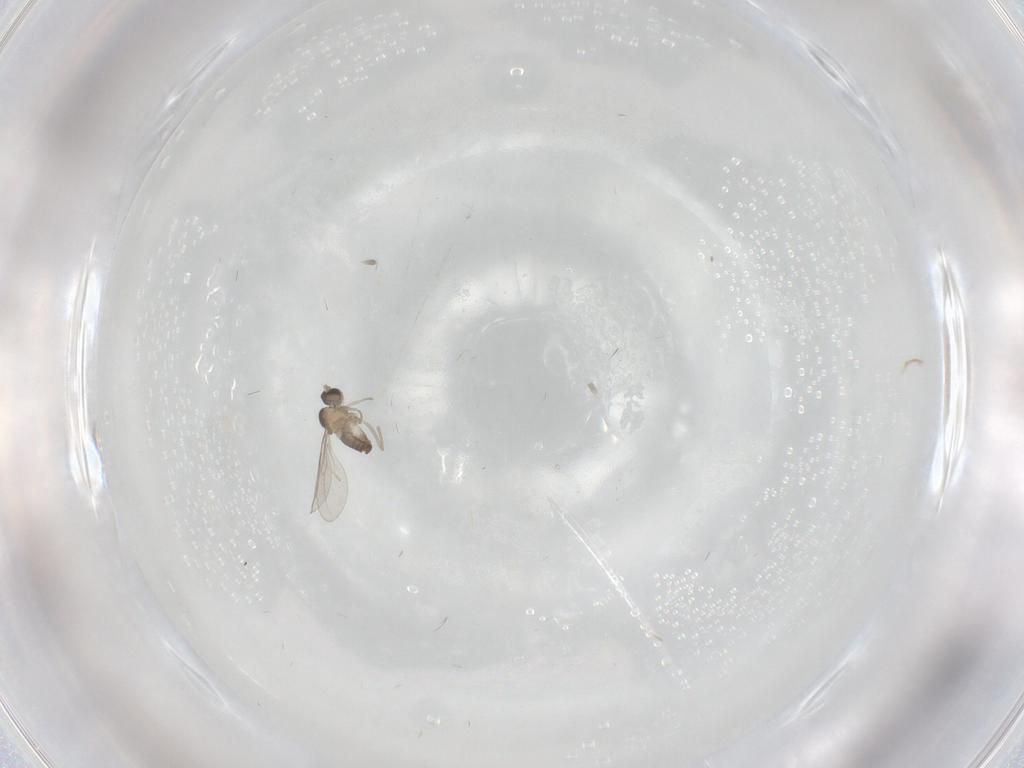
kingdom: Animalia
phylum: Arthropoda
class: Insecta
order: Diptera
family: Cecidomyiidae
